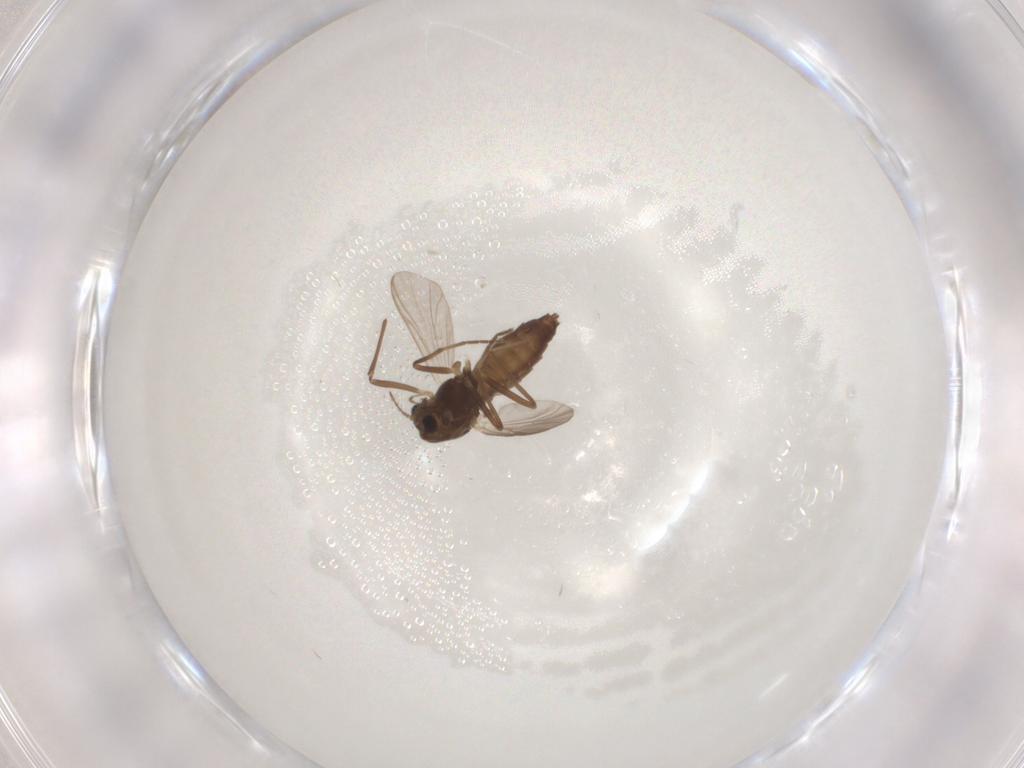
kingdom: Animalia
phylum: Arthropoda
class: Insecta
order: Diptera
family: Chironomidae
